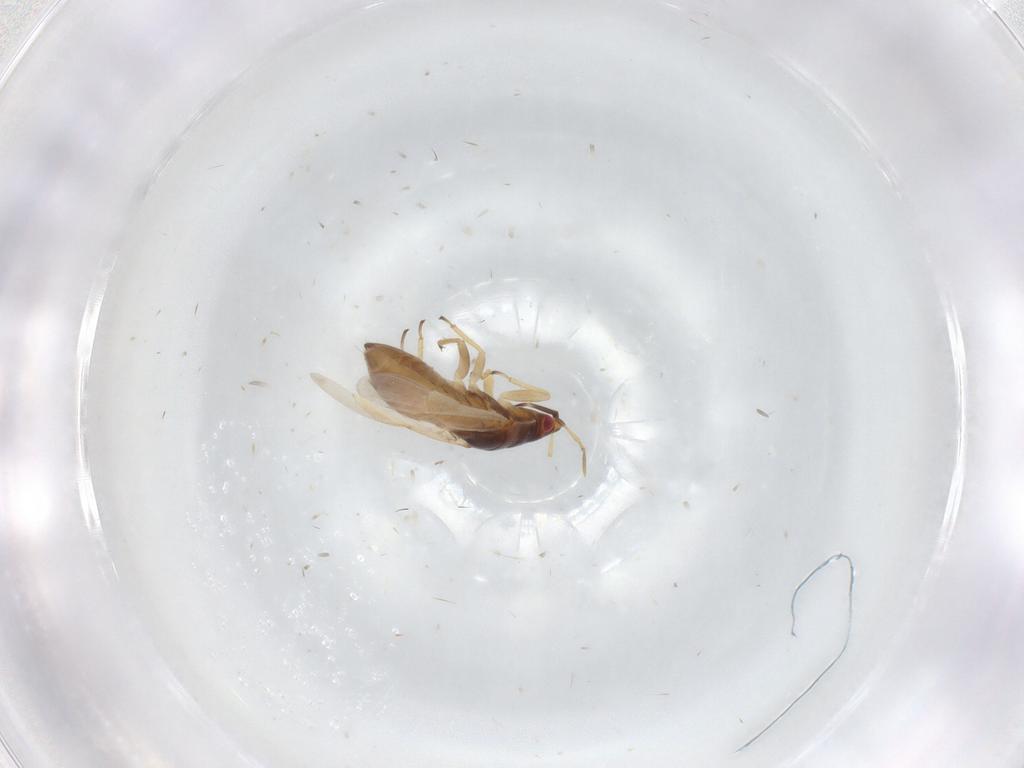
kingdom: Animalia
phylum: Arthropoda
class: Insecta
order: Hemiptera
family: Anthocoridae
